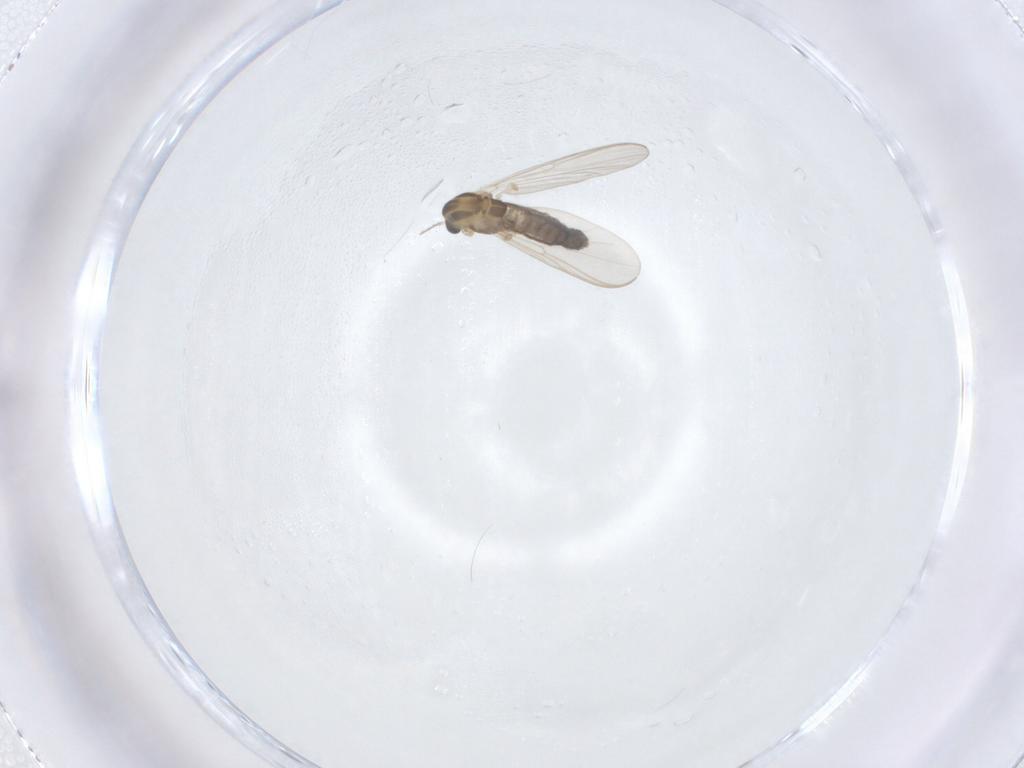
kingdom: Animalia
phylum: Arthropoda
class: Insecta
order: Diptera
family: Chironomidae
